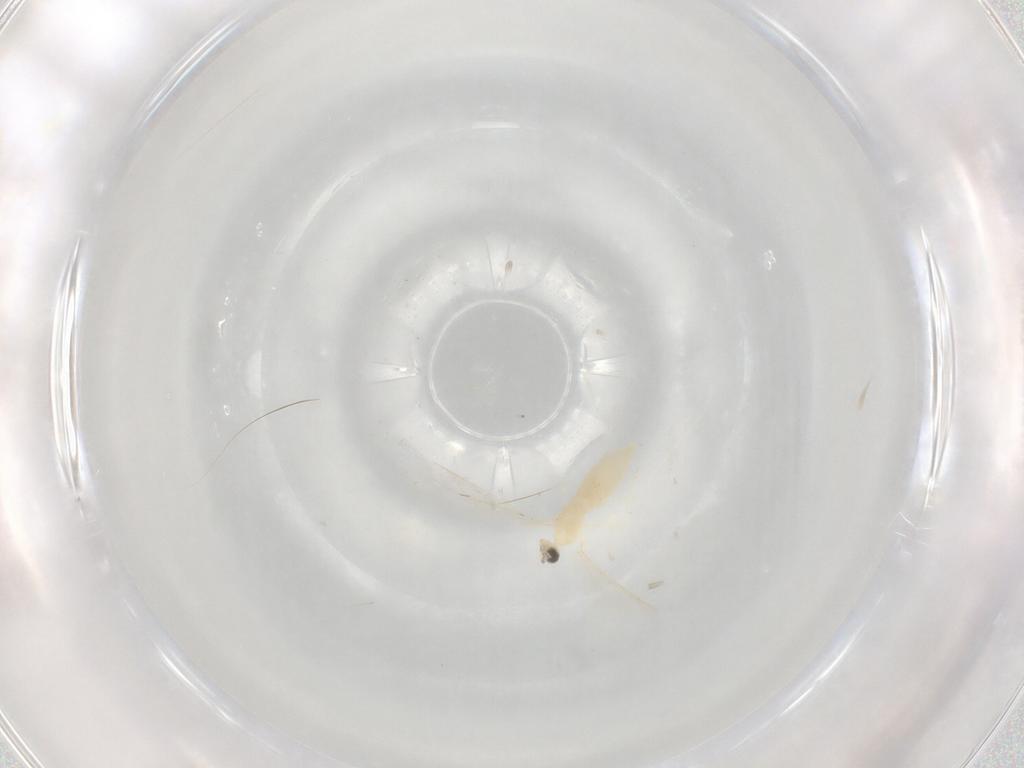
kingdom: Animalia
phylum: Arthropoda
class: Insecta
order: Diptera
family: Cecidomyiidae
